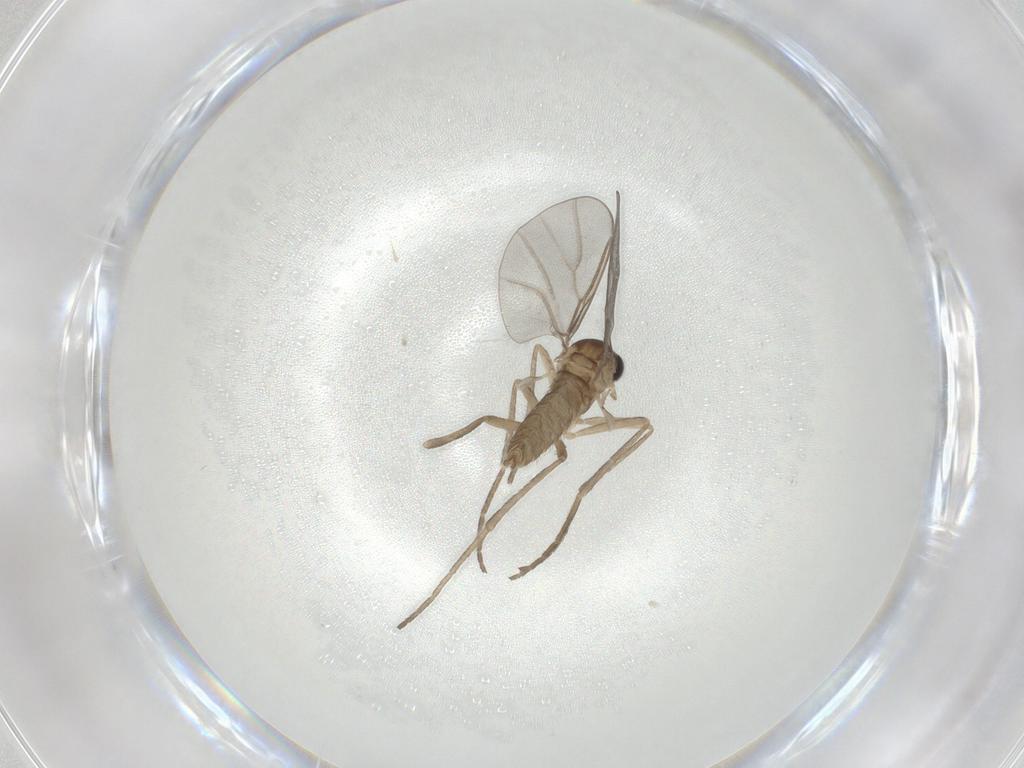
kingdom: Animalia
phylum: Arthropoda
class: Insecta
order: Diptera
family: Cecidomyiidae
